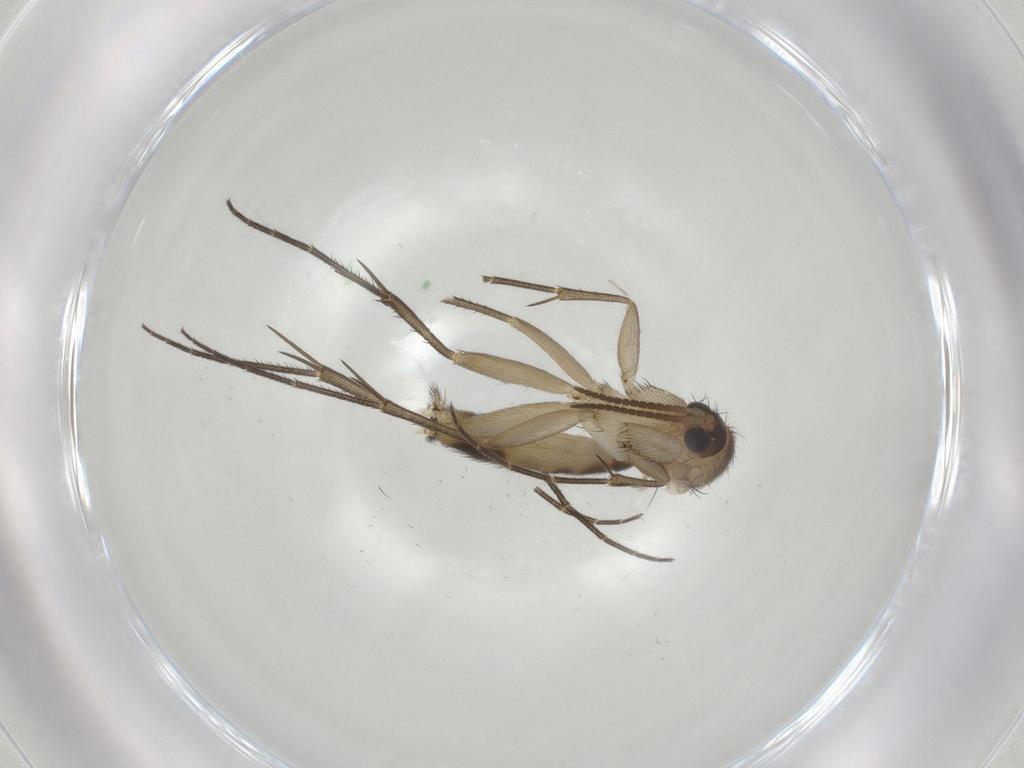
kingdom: Animalia
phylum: Arthropoda
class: Insecta
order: Diptera
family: Mycetophilidae
